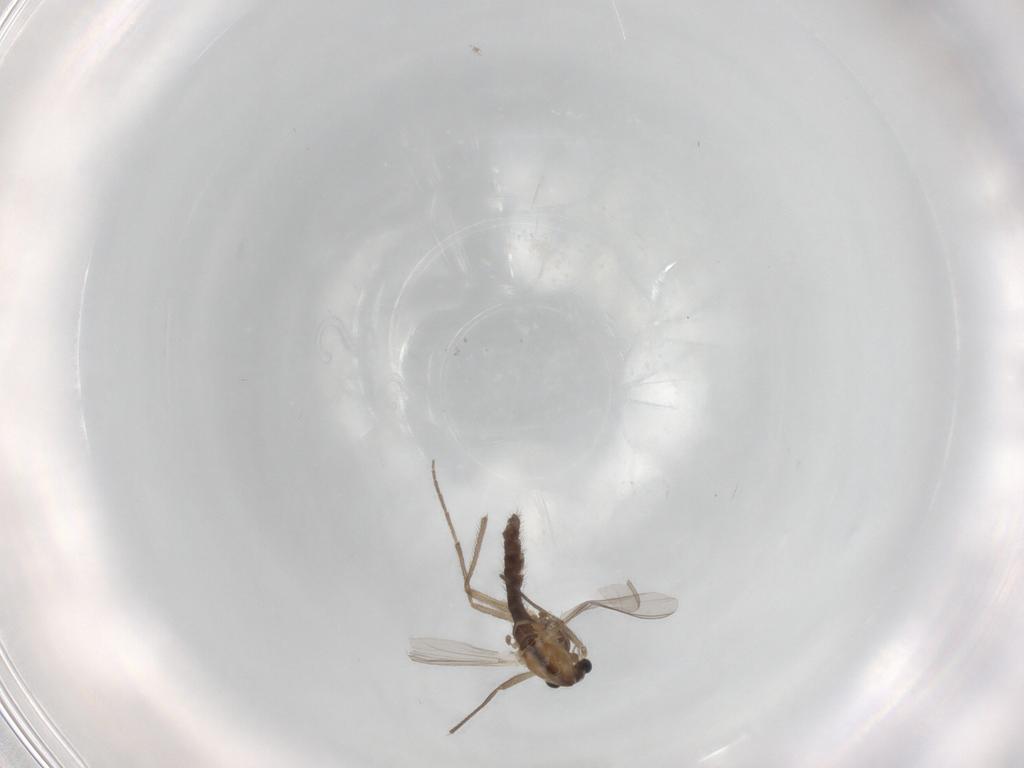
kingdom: Animalia
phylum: Arthropoda
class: Insecta
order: Diptera
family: Chironomidae
